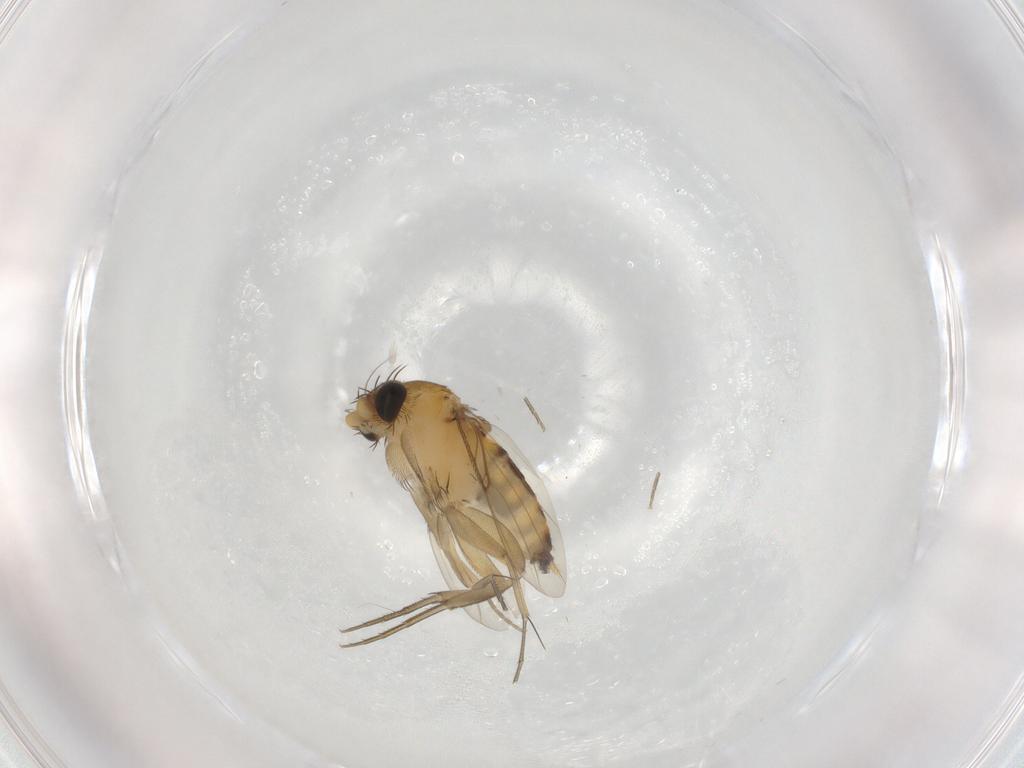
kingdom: Animalia
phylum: Arthropoda
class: Insecta
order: Diptera
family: Phoridae
